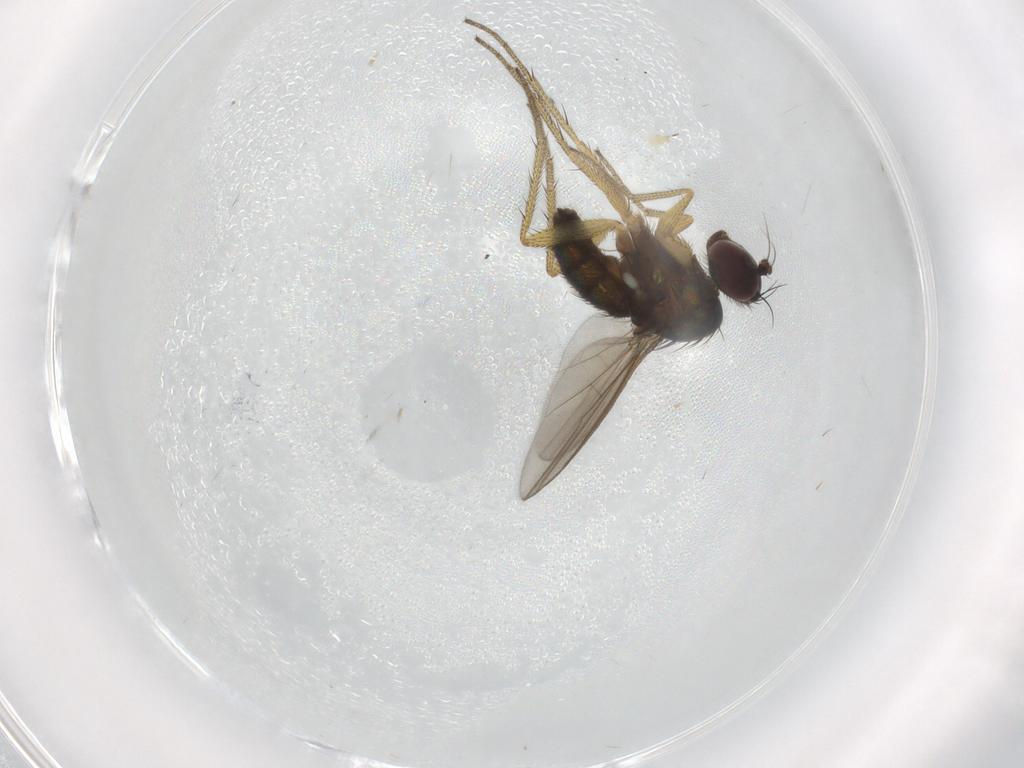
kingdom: Animalia
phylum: Arthropoda
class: Insecta
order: Diptera
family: Chironomidae
